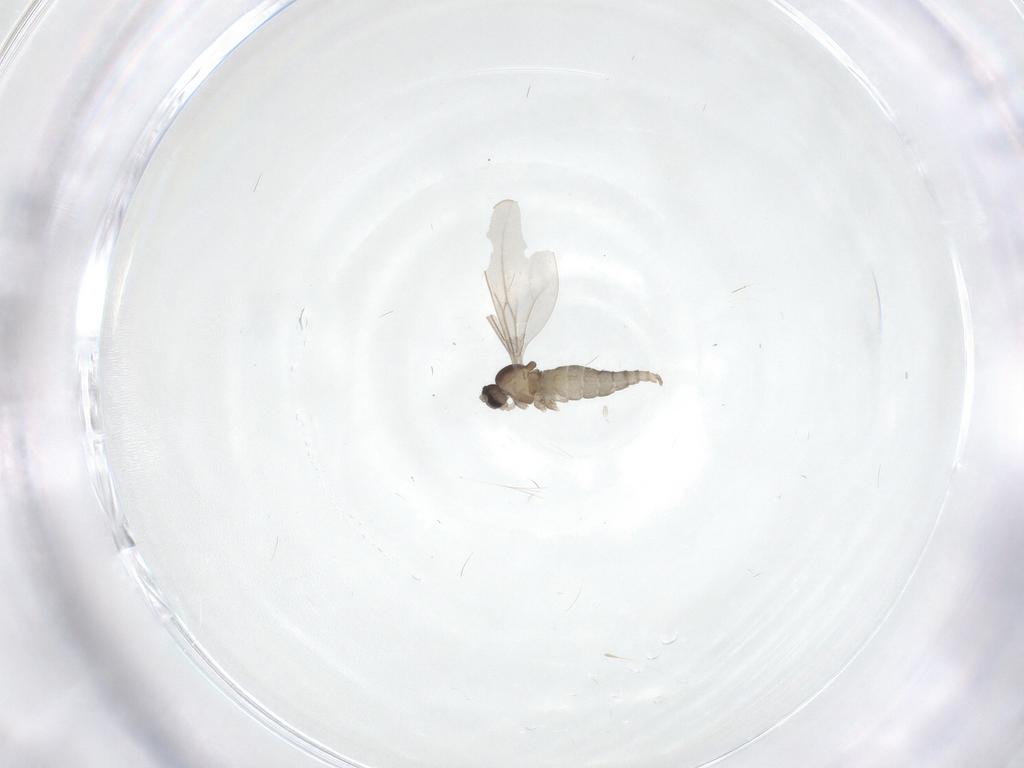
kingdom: Animalia
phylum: Arthropoda
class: Insecta
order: Diptera
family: Cecidomyiidae
